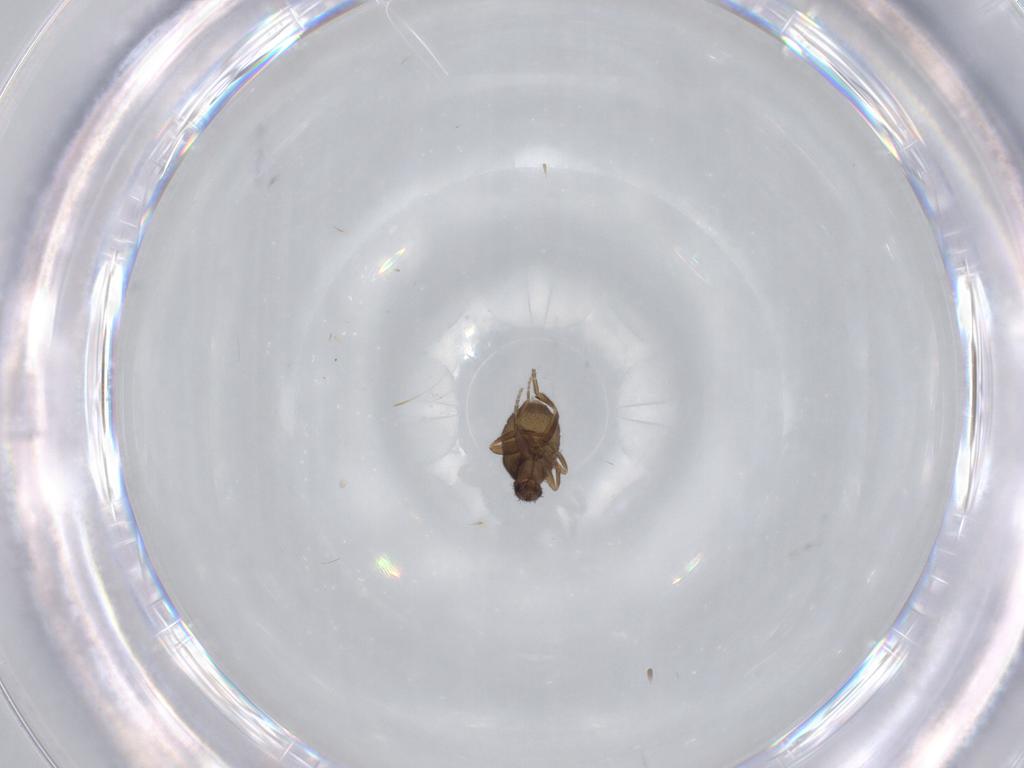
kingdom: Animalia
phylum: Arthropoda
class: Insecta
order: Diptera
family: Phoridae
